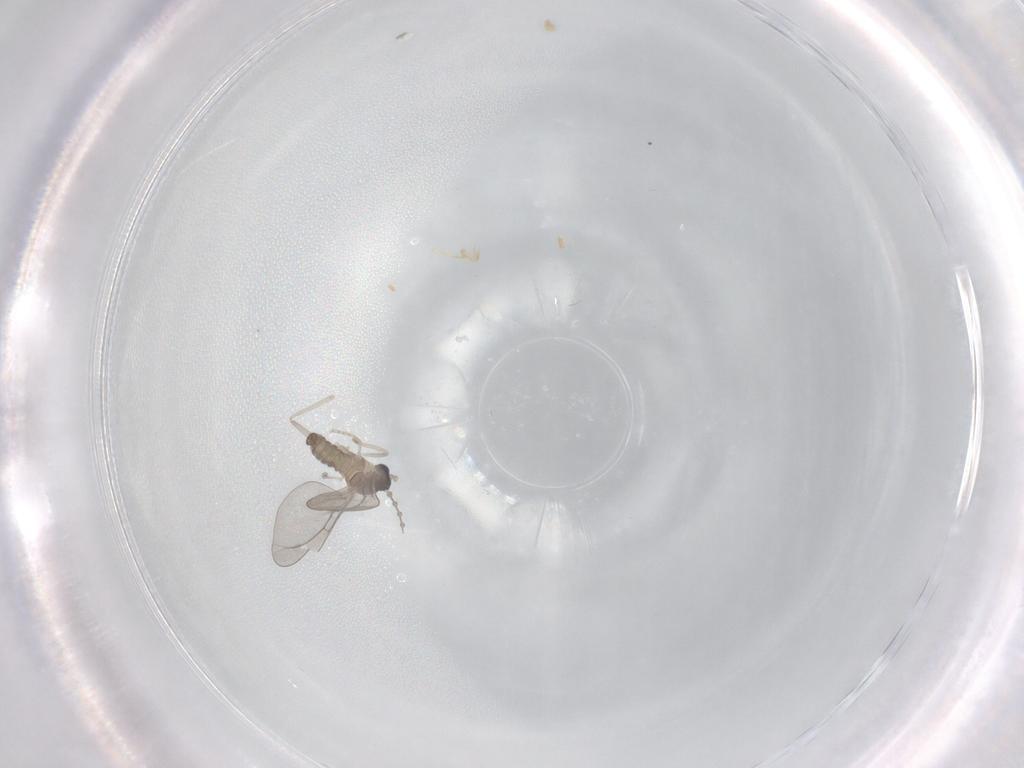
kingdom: Animalia
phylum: Arthropoda
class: Insecta
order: Diptera
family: Cecidomyiidae
